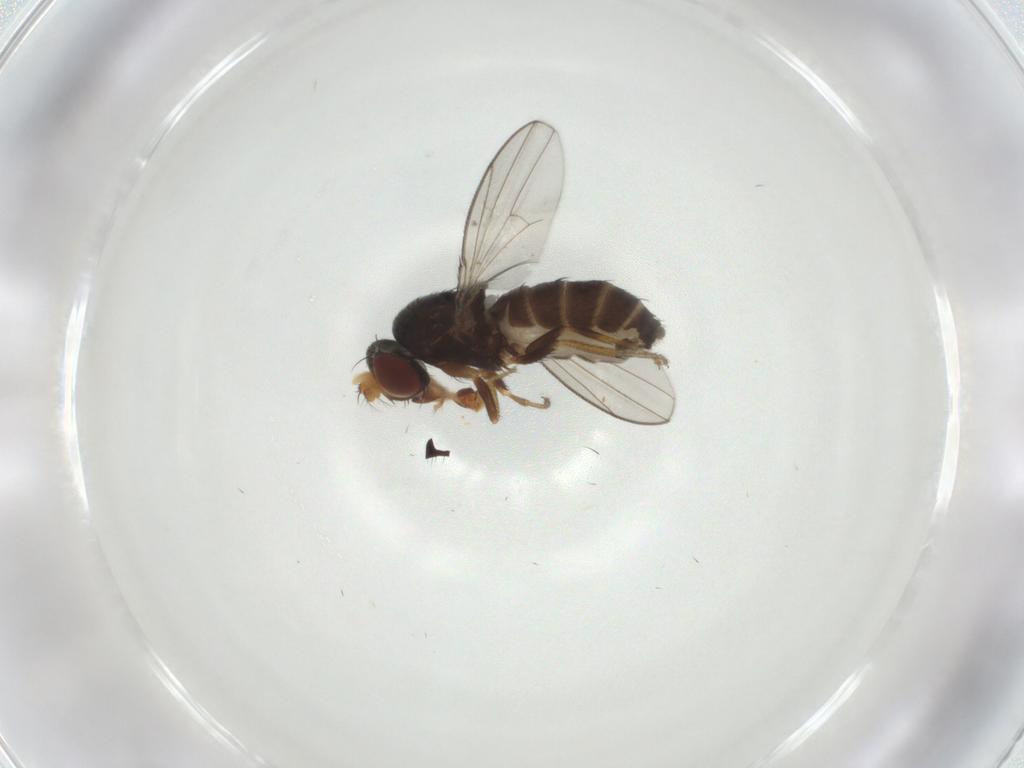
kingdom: Animalia
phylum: Arthropoda
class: Insecta
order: Diptera
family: Ephydridae
